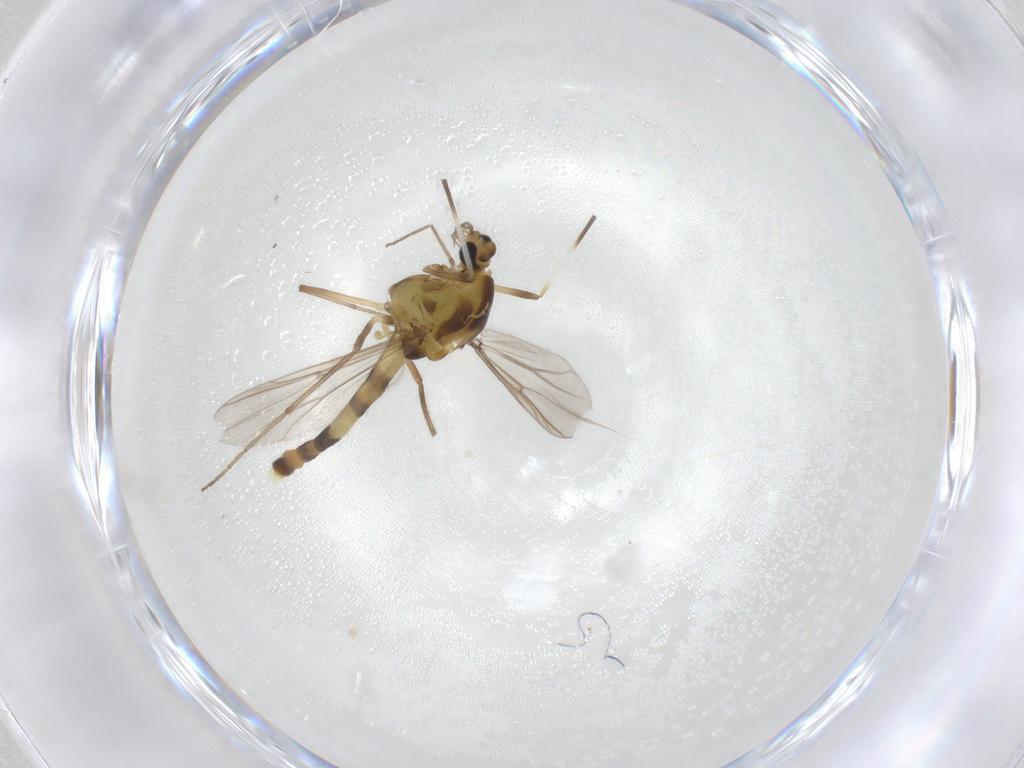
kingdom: Animalia
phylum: Arthropoda
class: Insecta
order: Diptera
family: Chironomidae
